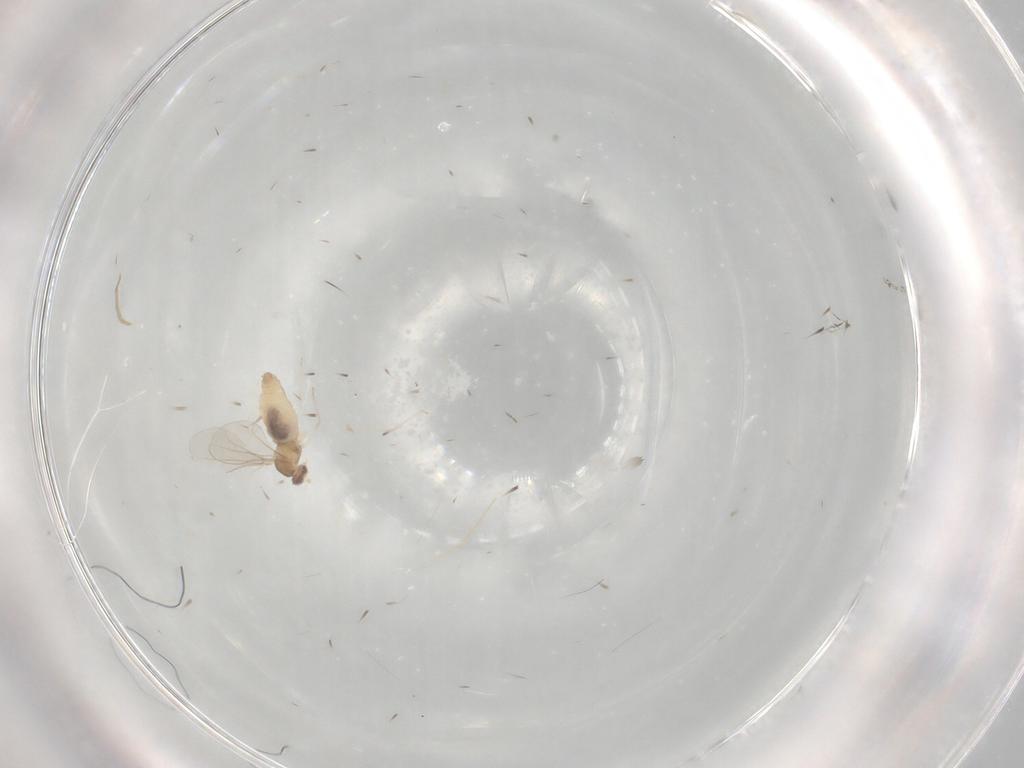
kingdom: Animalia
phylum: Arthropoda
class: Insecta
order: Diptera
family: Cecidomyiidae
